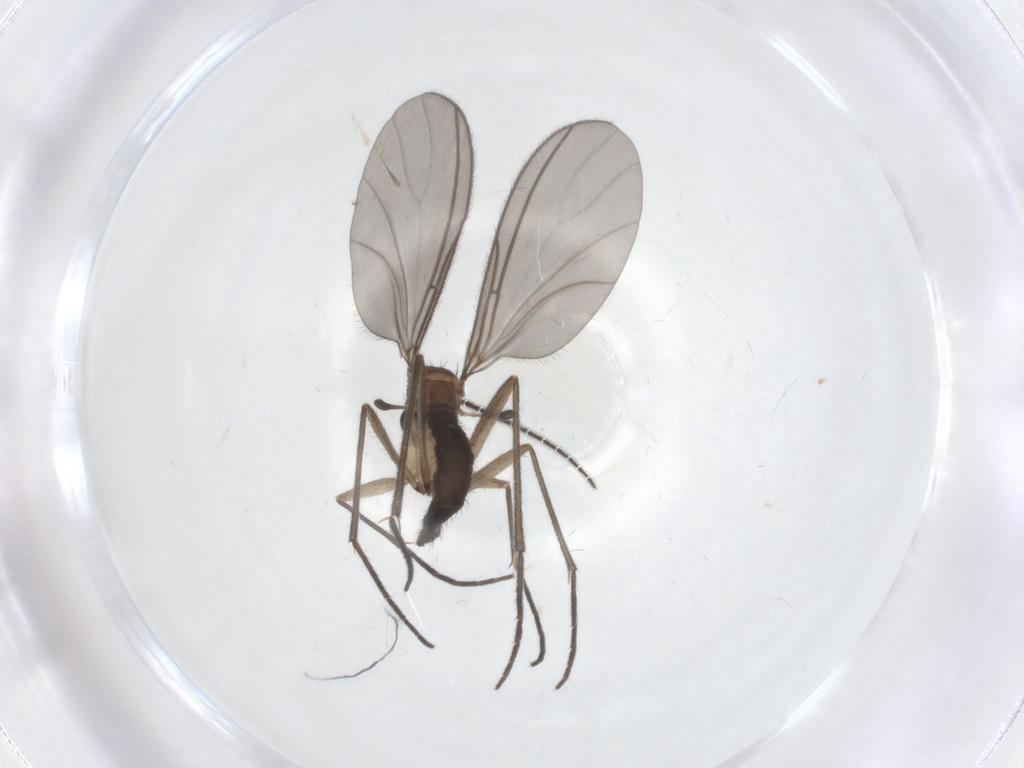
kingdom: Animalia
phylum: Arthropoda
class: Insecta
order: Diptera
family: Sciaridae
